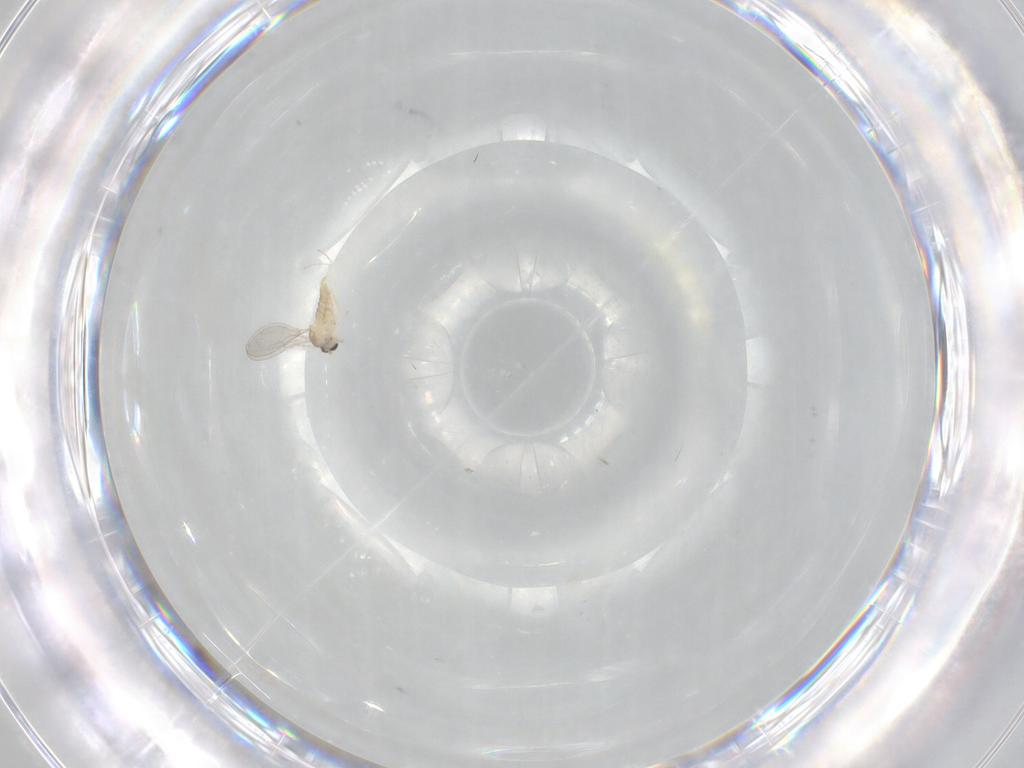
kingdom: Animalia
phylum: Arthropoda
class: Insecta
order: Diptera
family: Cecidomyiidae
